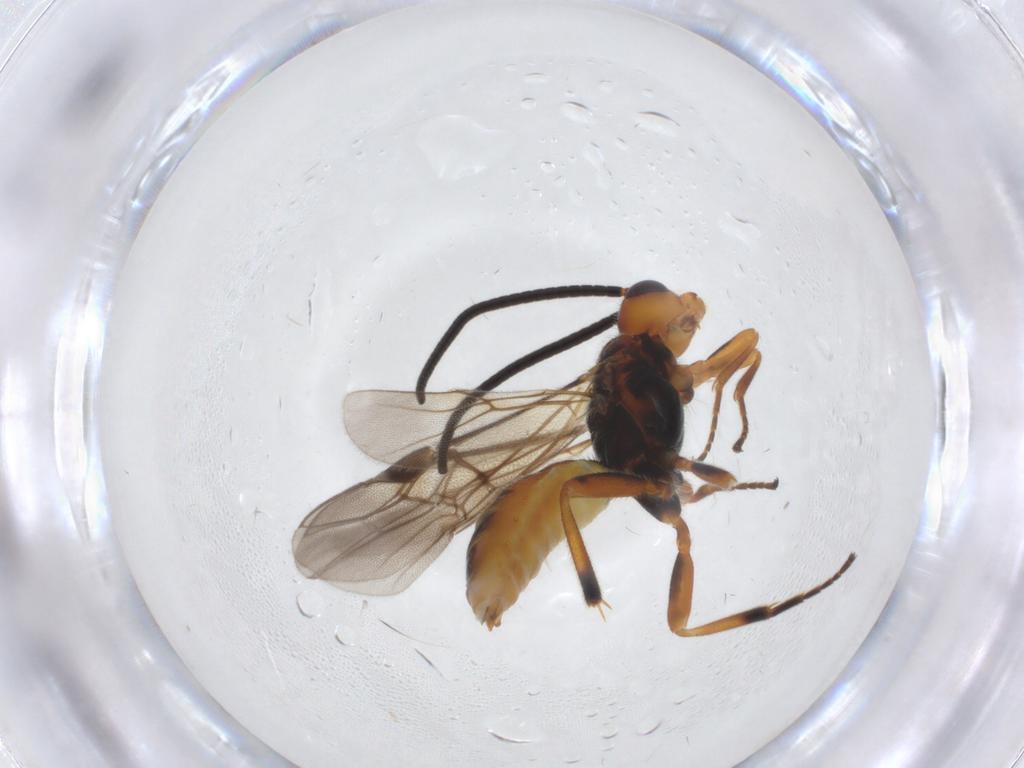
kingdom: Animalia
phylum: Arthropoda
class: Insecta
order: Hymenoptera
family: Braconidae
